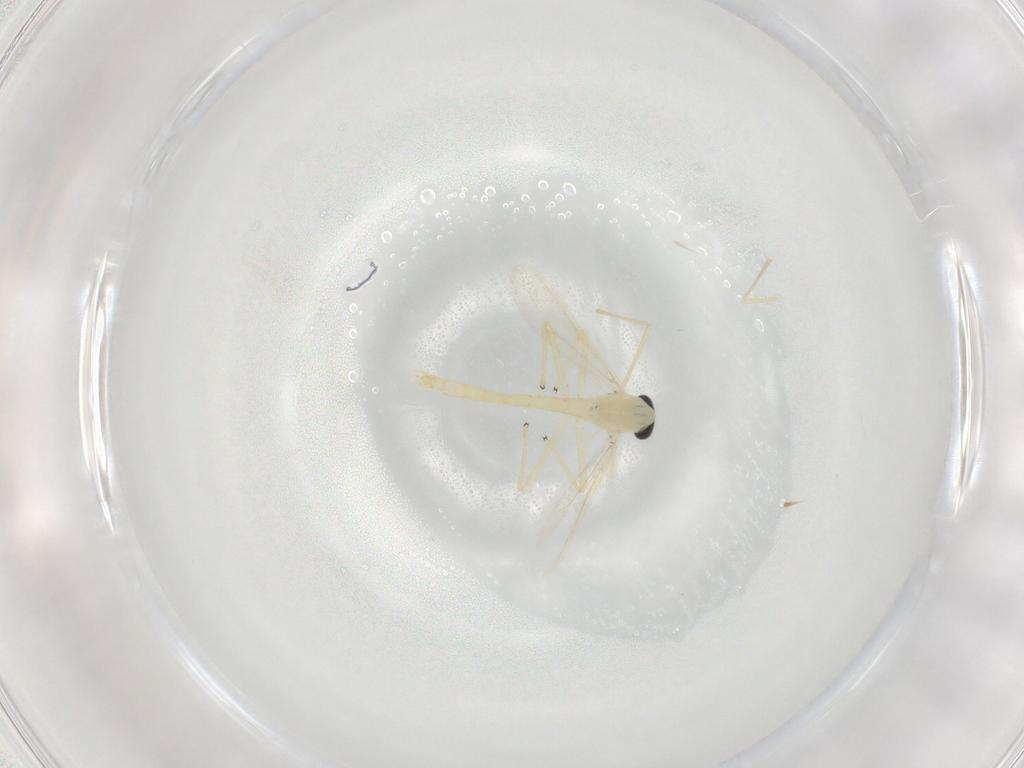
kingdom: Animalia
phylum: Arthropoda
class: Insecta
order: Diptera
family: Chironomidae
